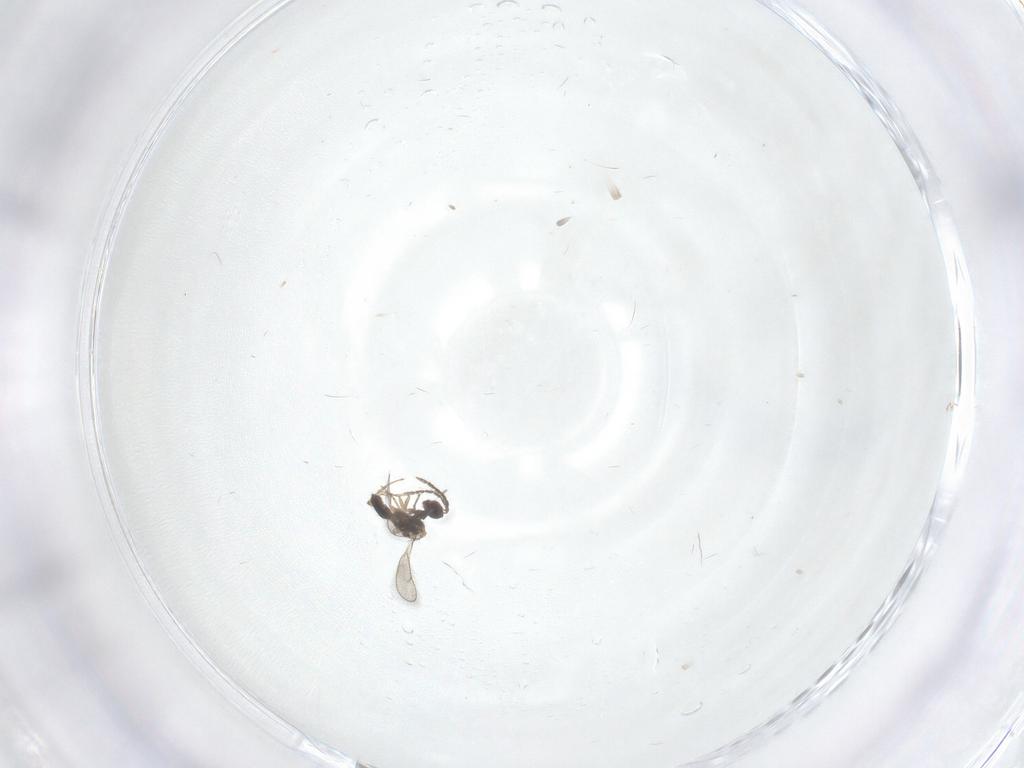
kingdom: Animalia
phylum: Arthropoda
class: Insecta
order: Hymenoptera
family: Eulophidae
